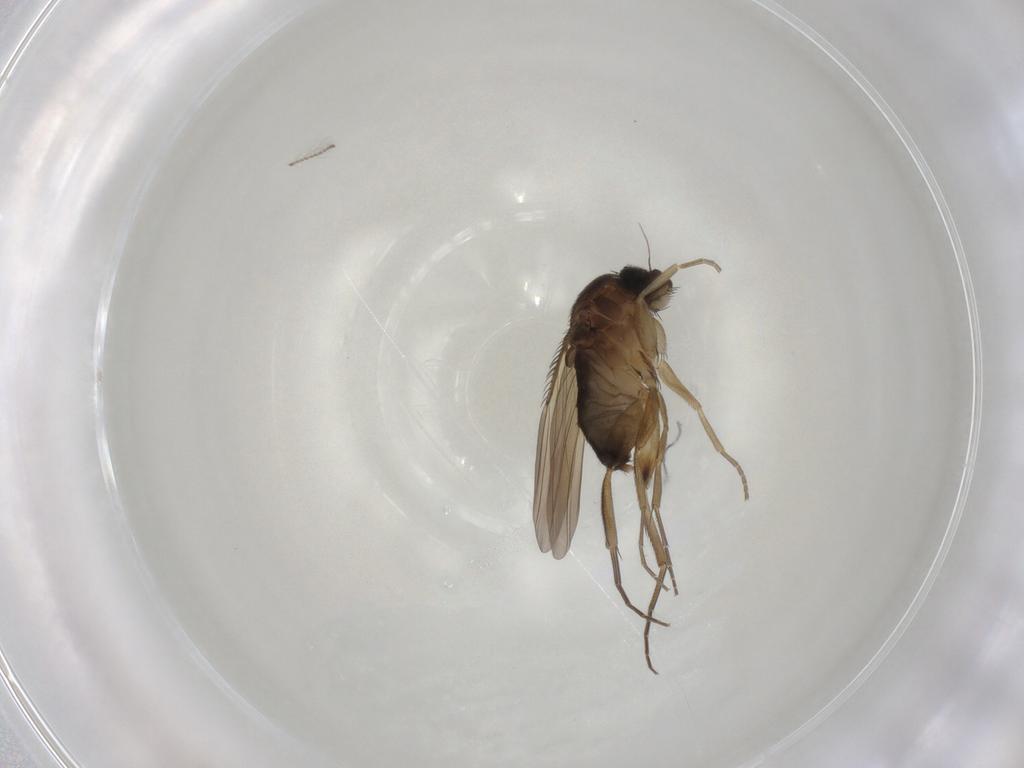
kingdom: Animalia
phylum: Arthropoda
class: Insecta
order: Diptera
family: Phoridae
